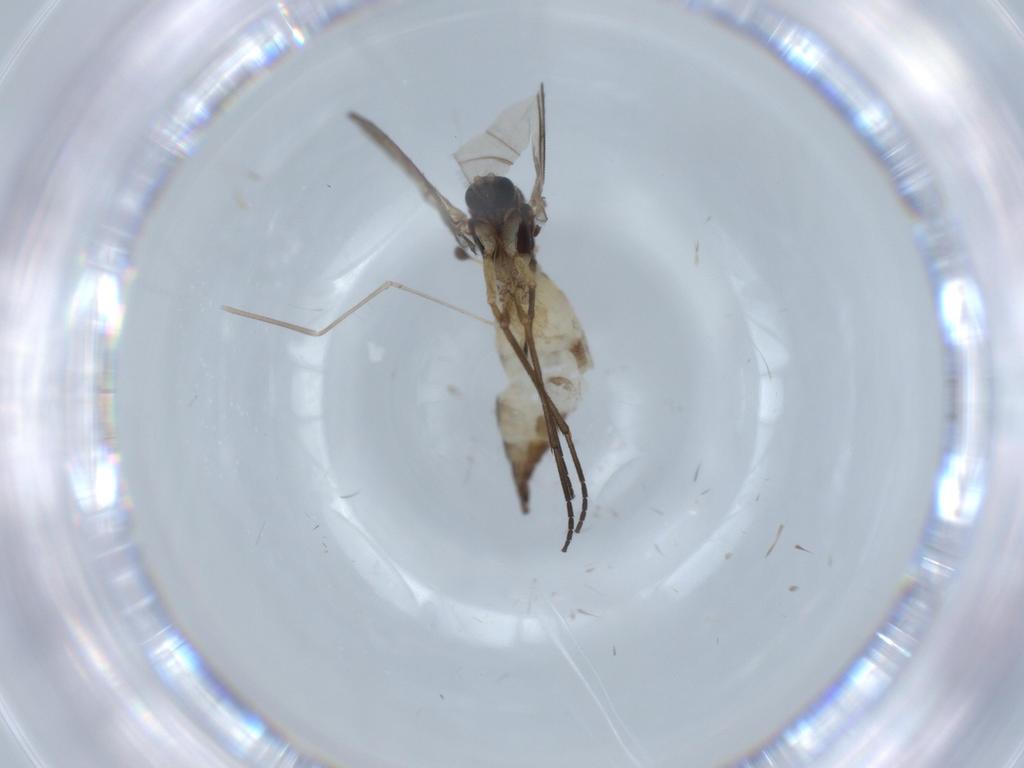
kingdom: Animalia
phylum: Arthropoda
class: Insecta
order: Diptera
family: Sciaridae
